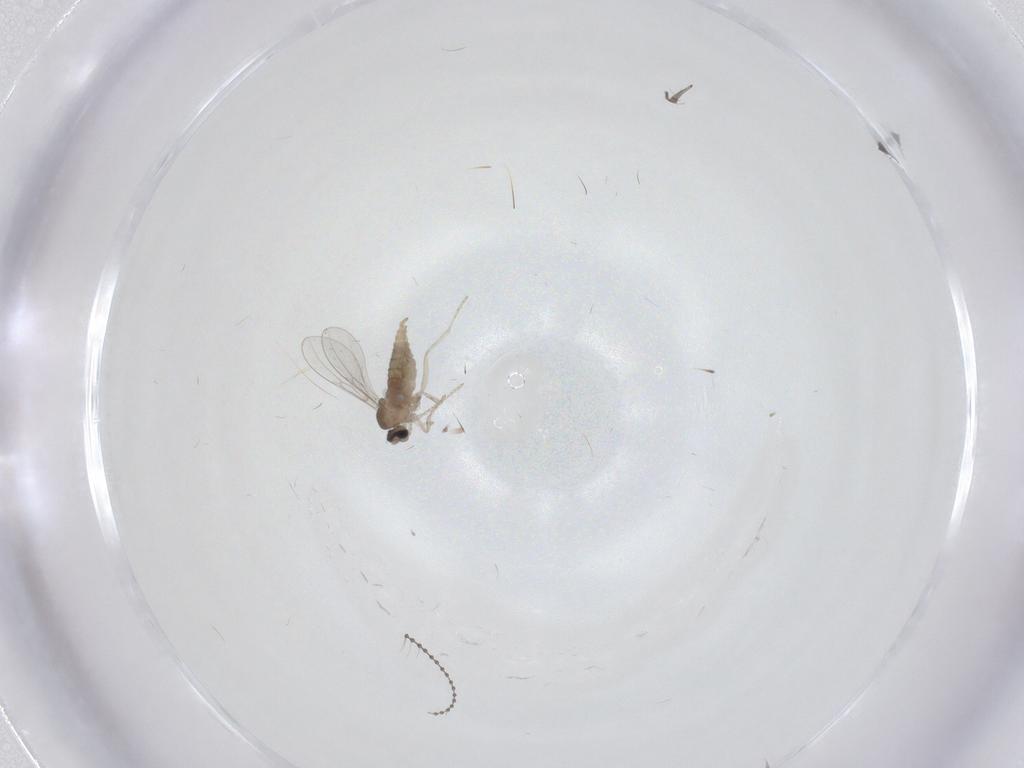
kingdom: Animalia
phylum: Arthropoda
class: Insecta
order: Diptera
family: Cecidomyiidae
